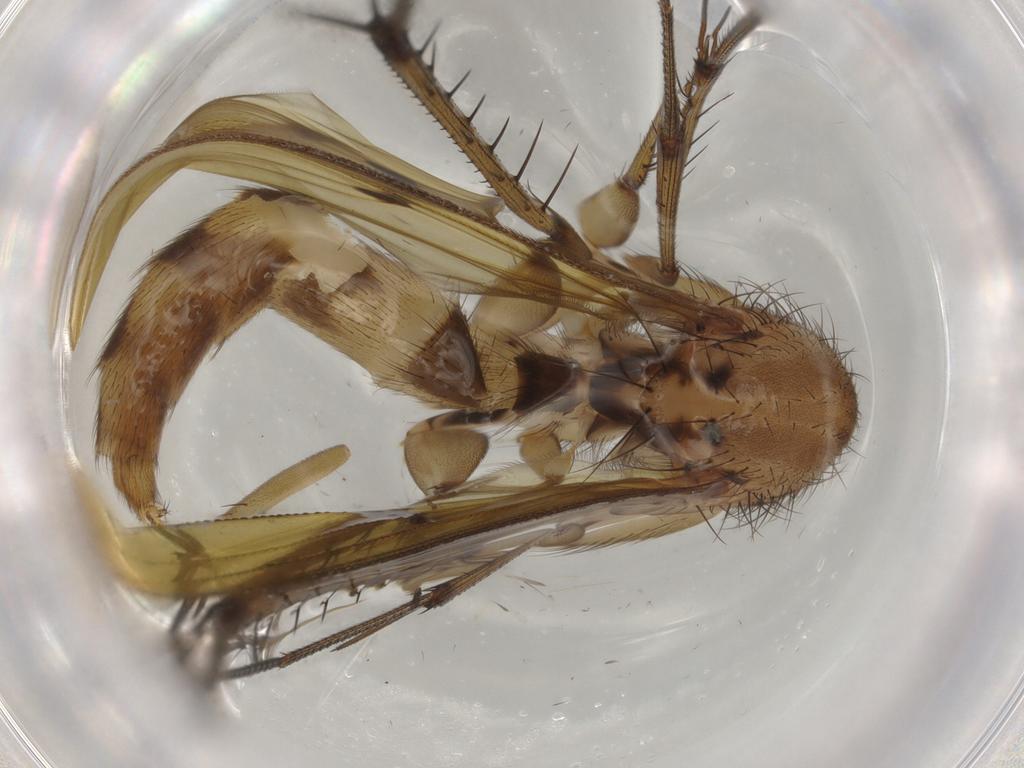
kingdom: Animalia
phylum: Arthropoda
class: Insecta
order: Diptera
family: Mycetophilidae
